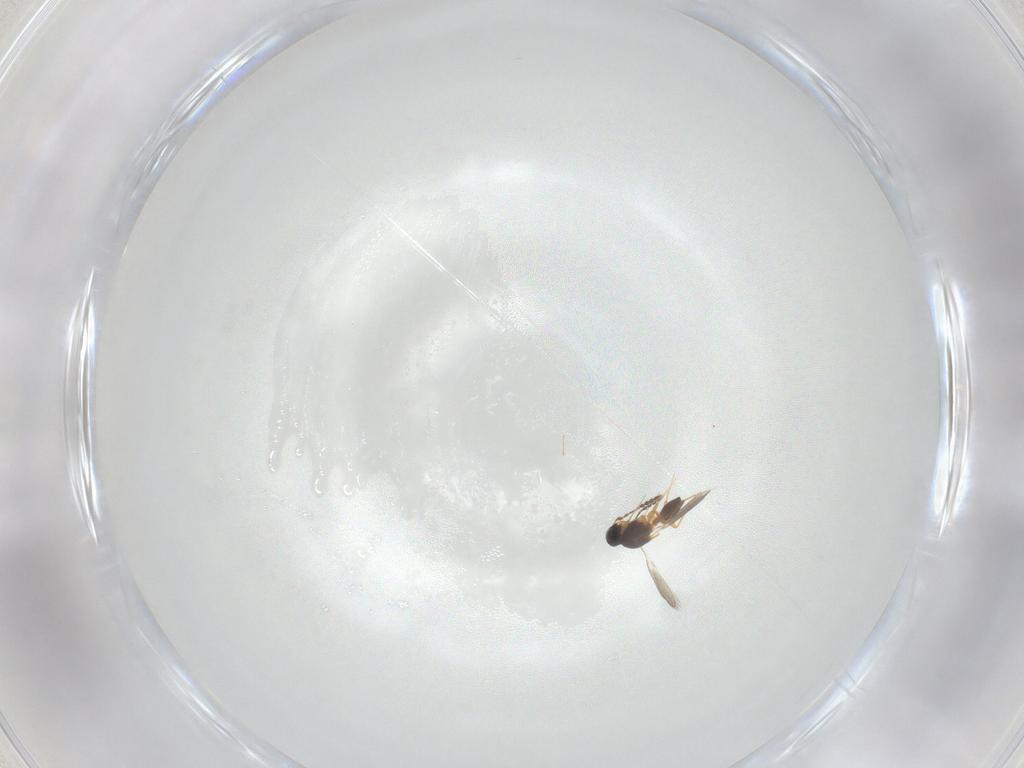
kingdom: Animalia
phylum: Arthropoda
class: Insecta
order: Hymenoptera
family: Platygastridae
